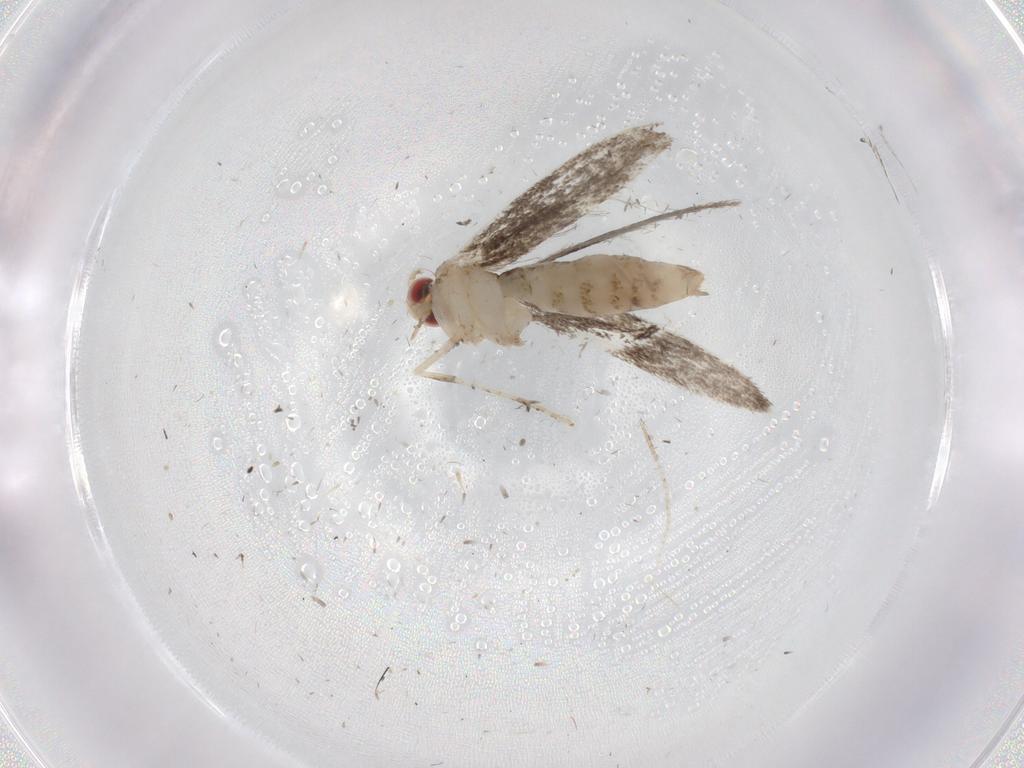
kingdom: Animalia
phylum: Arthropoda
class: Insecta
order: Lepidoptera
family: Gracillariidae
